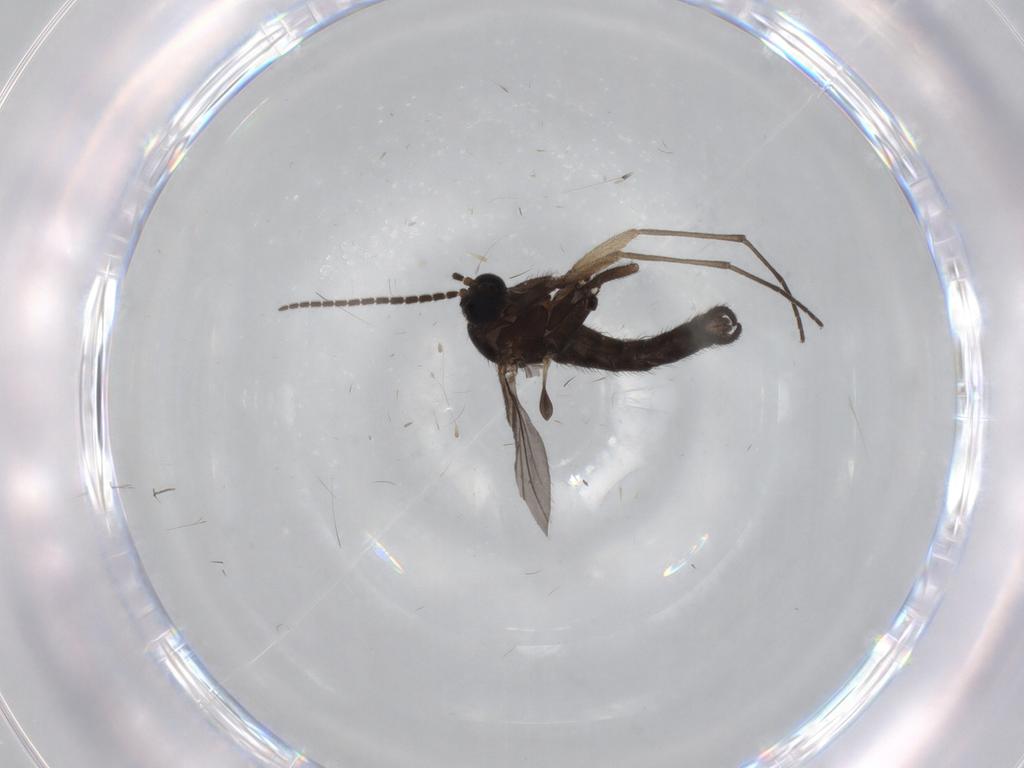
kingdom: Animalia
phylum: Arthropoda
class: Insecta
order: Diptera
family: Sciaridae
